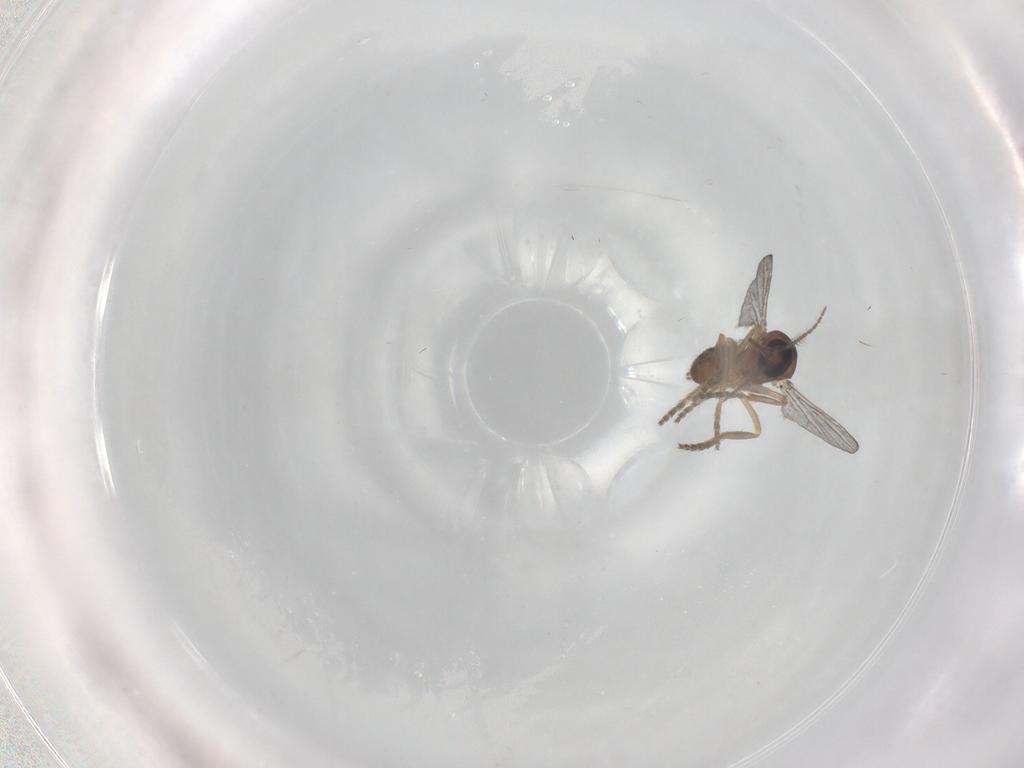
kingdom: Animalia
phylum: Arthropoda
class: Insecta
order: Diptera
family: Ceratopogonidae
